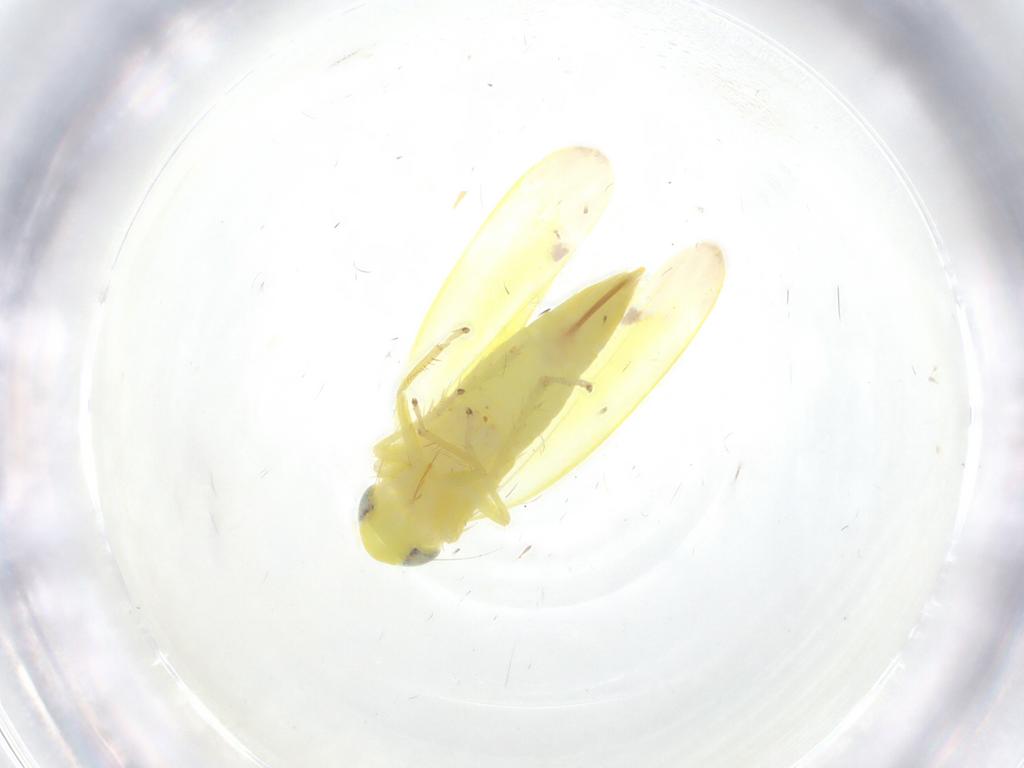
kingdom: Animalia
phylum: Arthropoda
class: Insecta
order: Hemiptera
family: Cicadellidae
